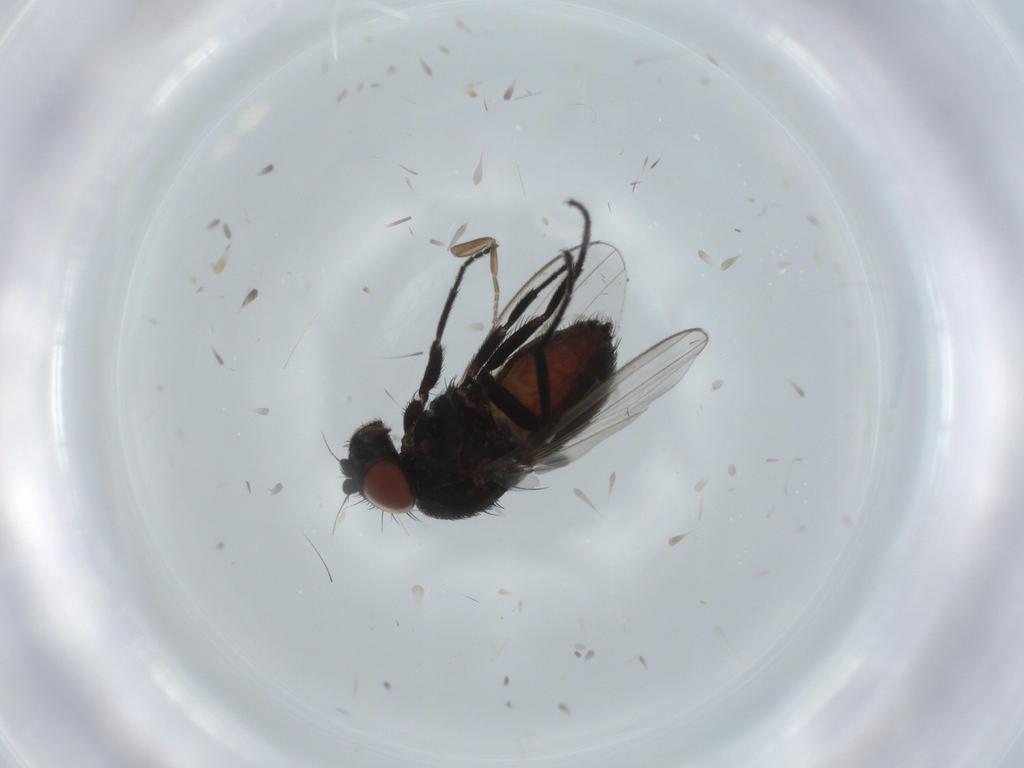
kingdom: Animalia
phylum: Arthropoda
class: Insecta
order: Diptera
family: Milichiidae
